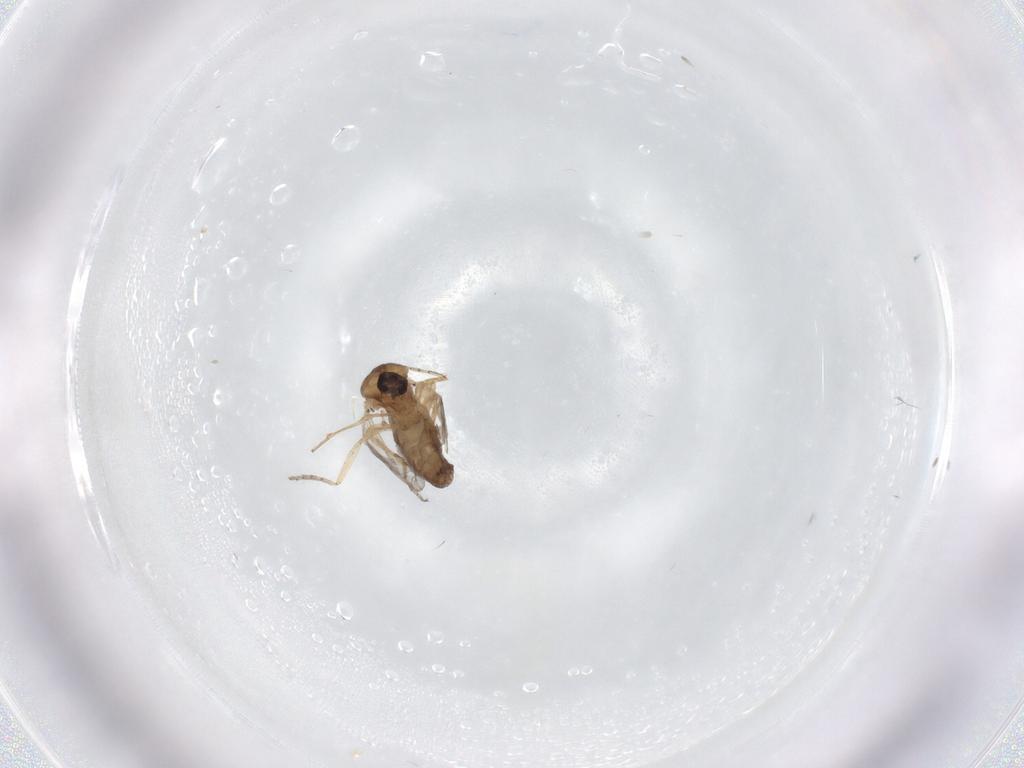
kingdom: Animalia
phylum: Arthropoda
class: Insecta
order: Diptera
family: Ceratopogonidae
